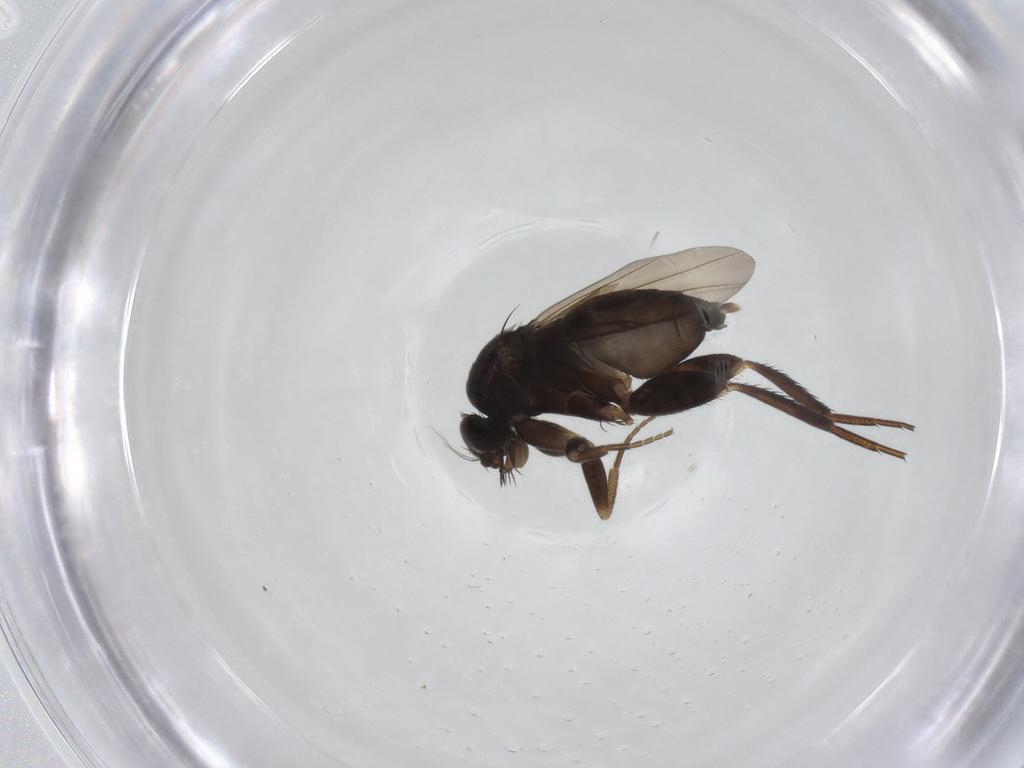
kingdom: Animalia
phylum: Arthropoda
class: Insecta
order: Diptera
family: Phoridae
